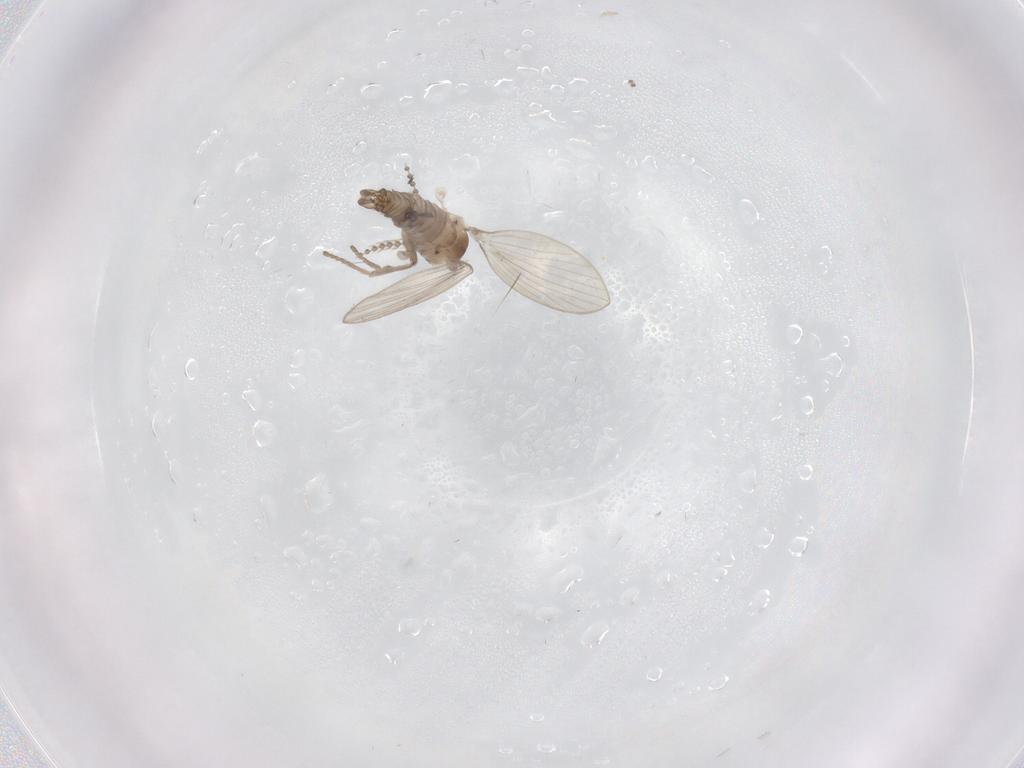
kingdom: Animalia
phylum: Arthropoda
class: Insecta
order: Diptera
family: Psychodidae
